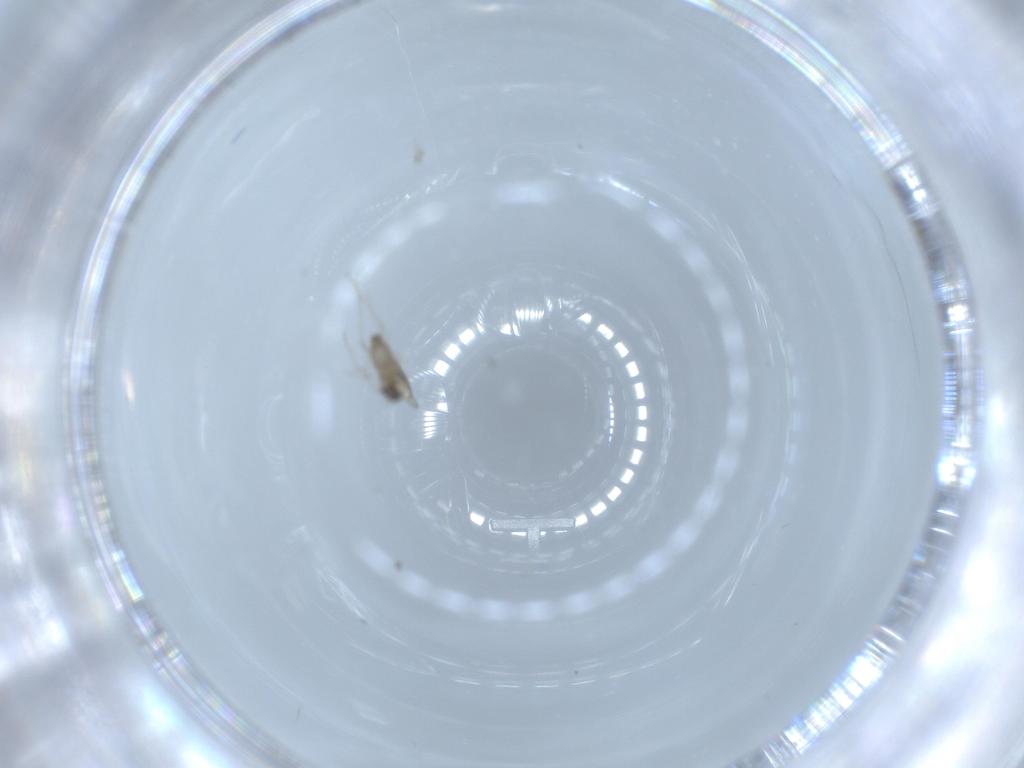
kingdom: Animalia
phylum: Arthropoda
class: Insecta
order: Diptera
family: Cecidomyiidae
